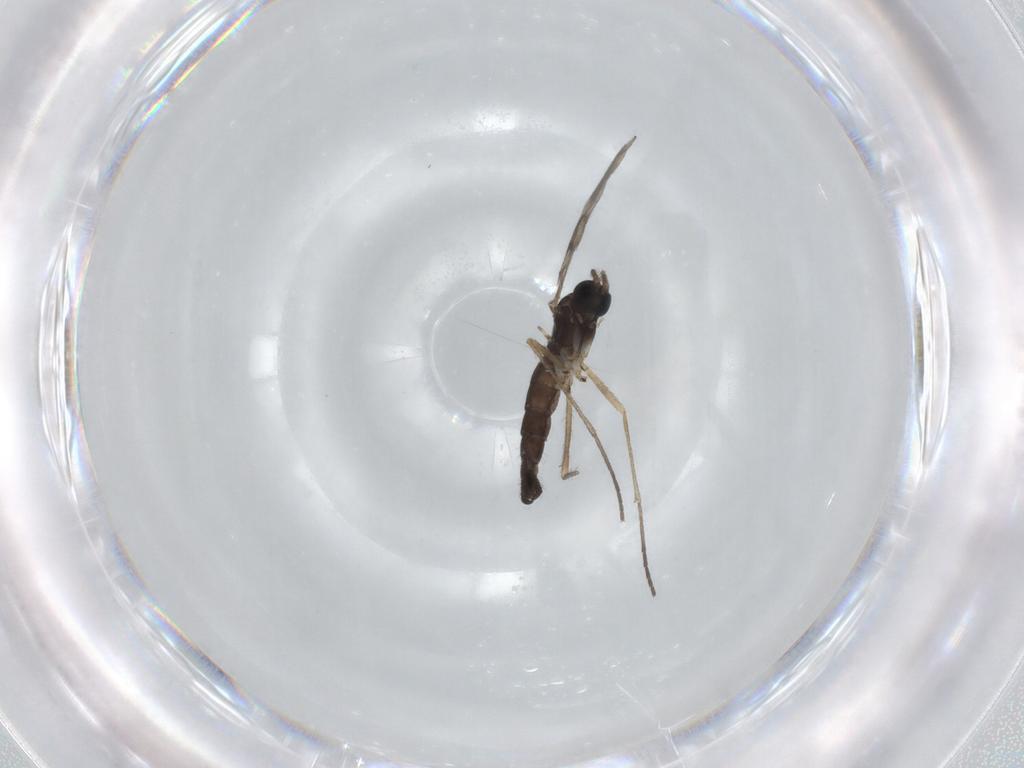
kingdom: Animalia
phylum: Arthropoda
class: Insecta
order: Diptera
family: Sciaridae
